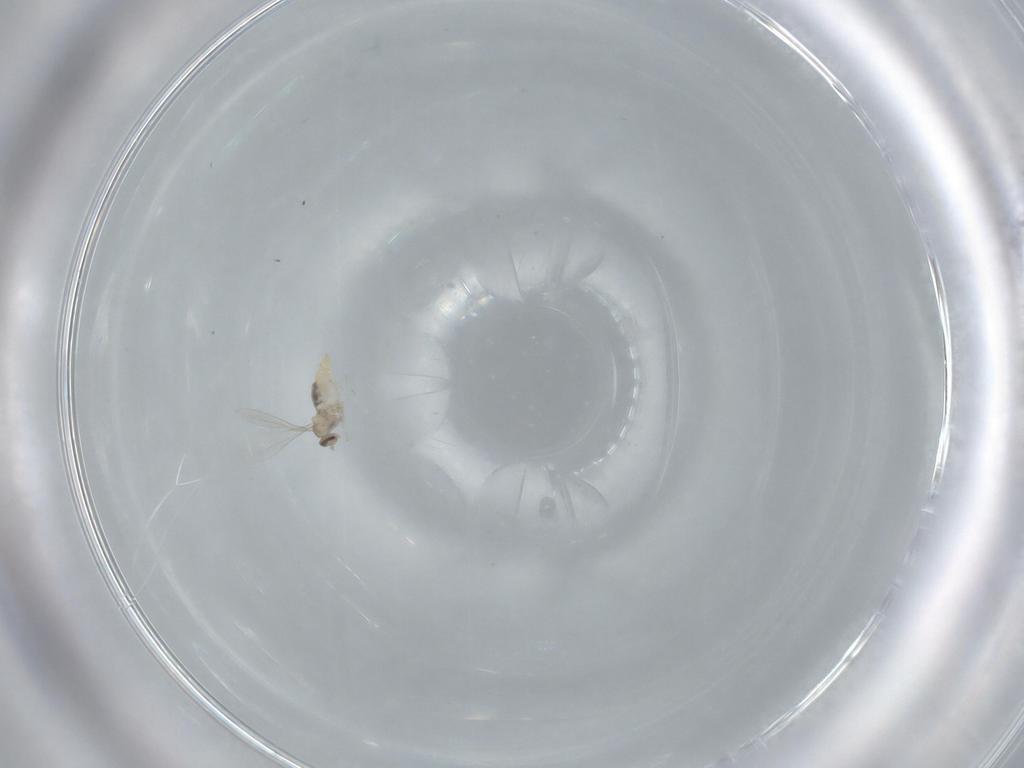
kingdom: Animalia
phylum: Arthropoda
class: Insecta
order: Diptera
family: Cecidomyiidae
